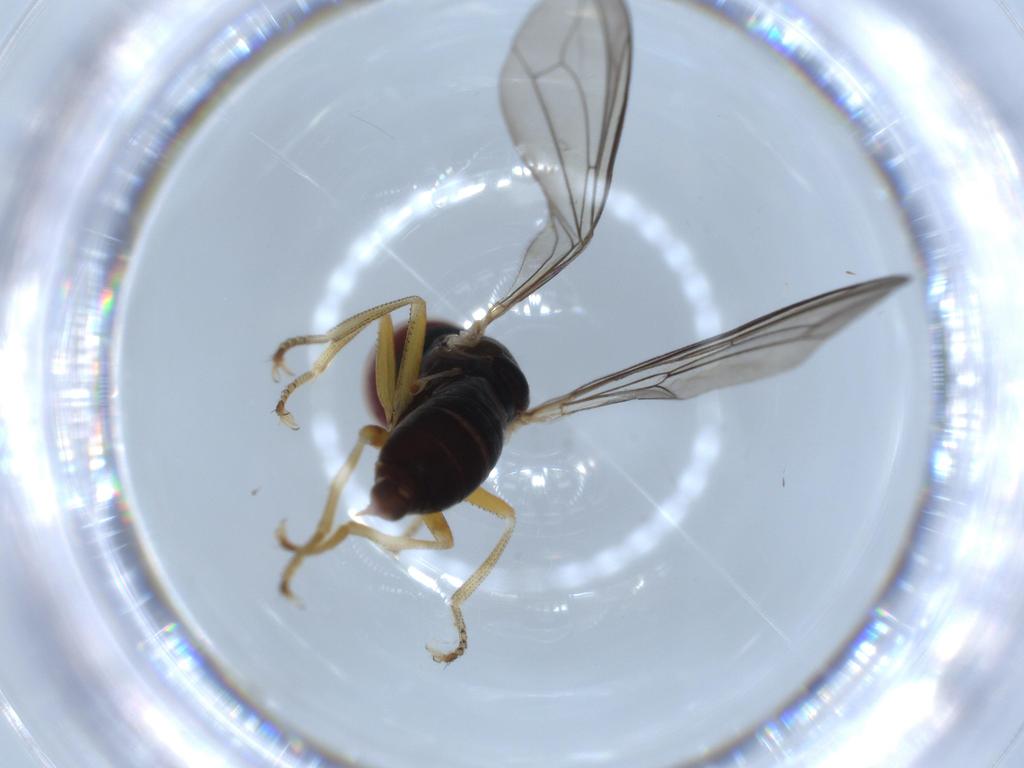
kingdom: Animalia
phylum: Arthropoda
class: Insecta
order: Diptera
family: Pipunculidae
